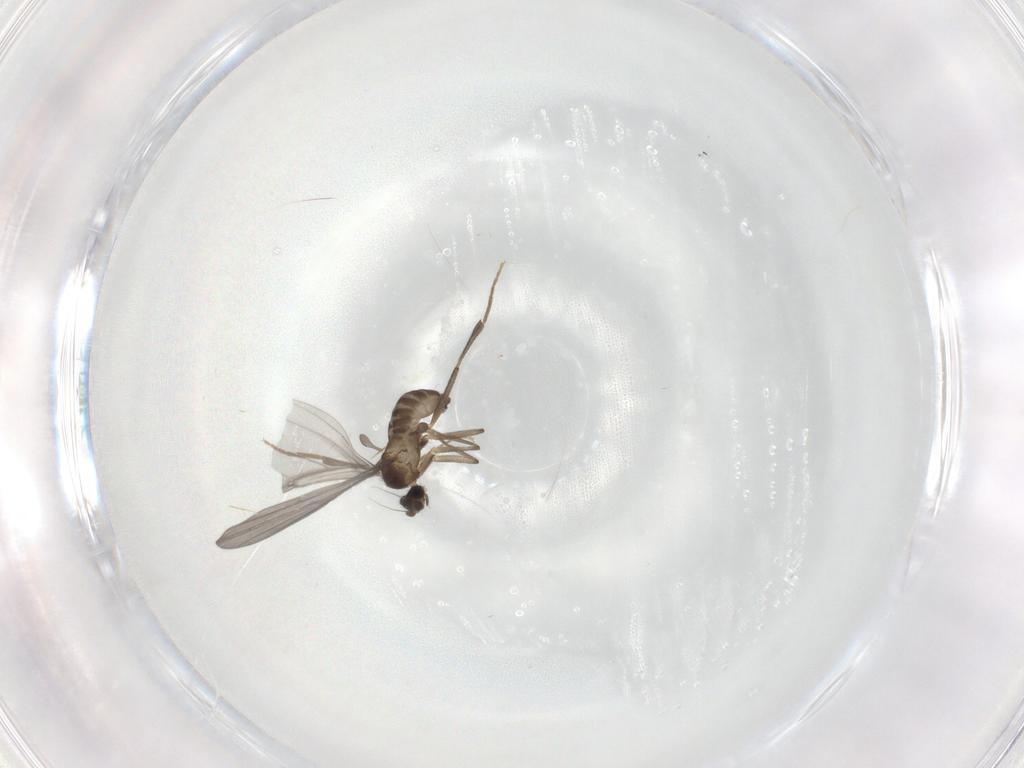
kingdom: Animalia
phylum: Arthropoda
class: Insecta
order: Diptera
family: Phoridae
